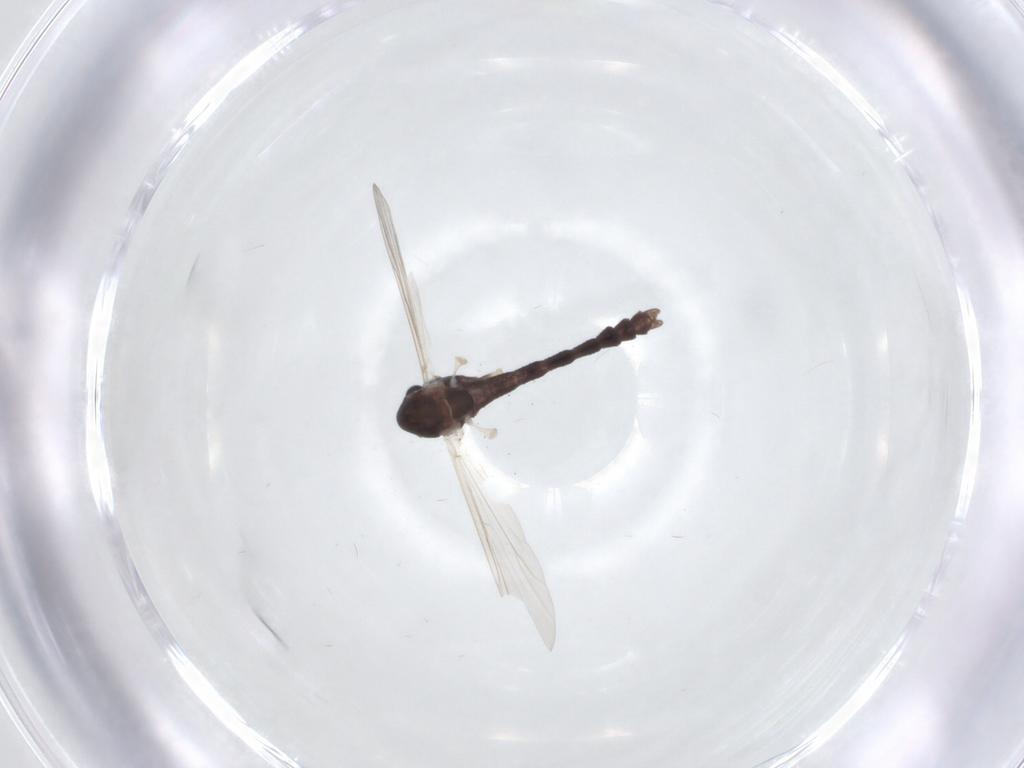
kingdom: Animalia
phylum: Arthropoda
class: Insecta
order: Diptera
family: Chironomidae
